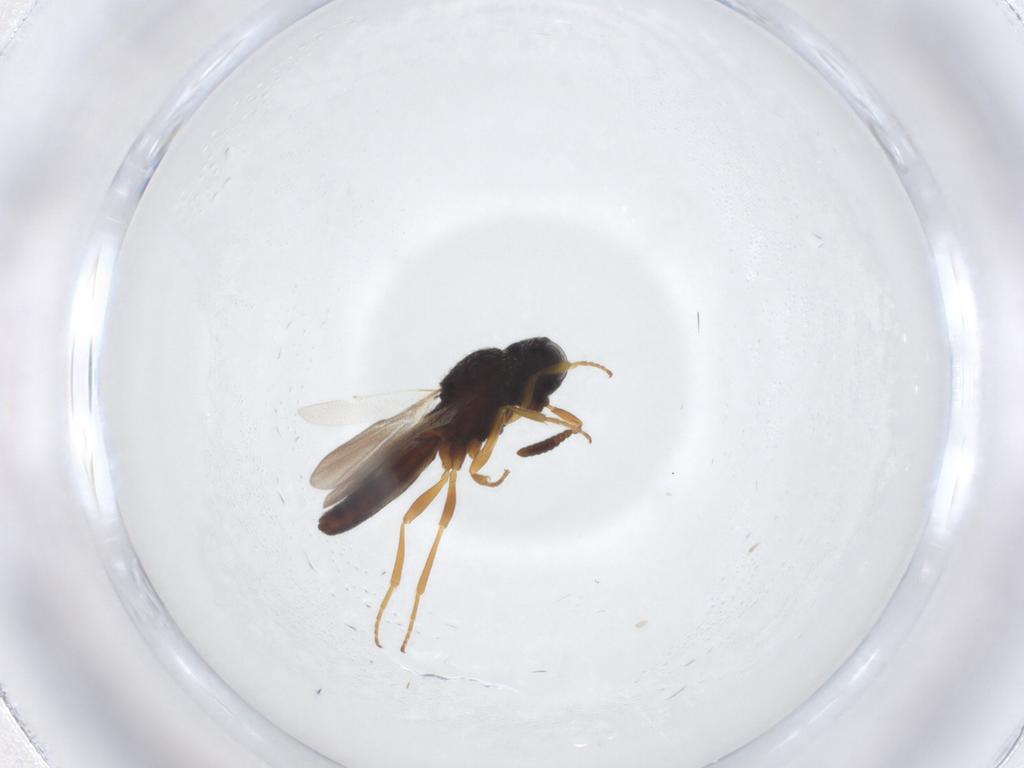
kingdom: Animalia
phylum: Arthropoda
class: Insecta
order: Hymenoptera
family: Scelionidae
